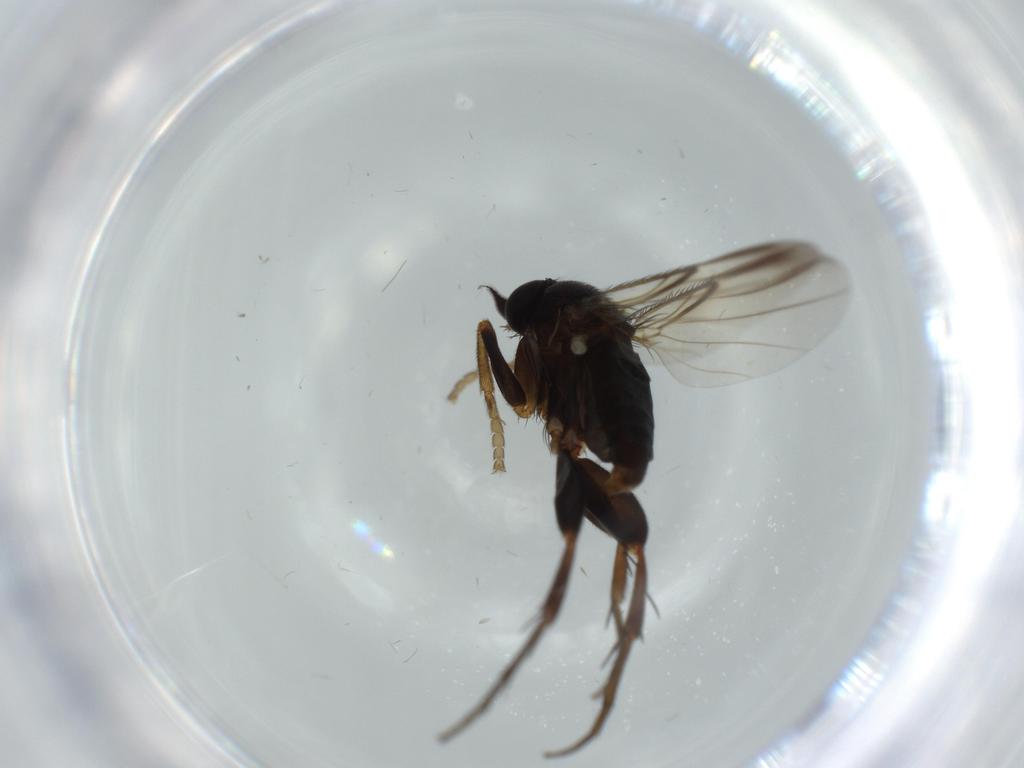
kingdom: Animalia
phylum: Arthropoda
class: Insecta
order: Diptera
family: Phoridae
